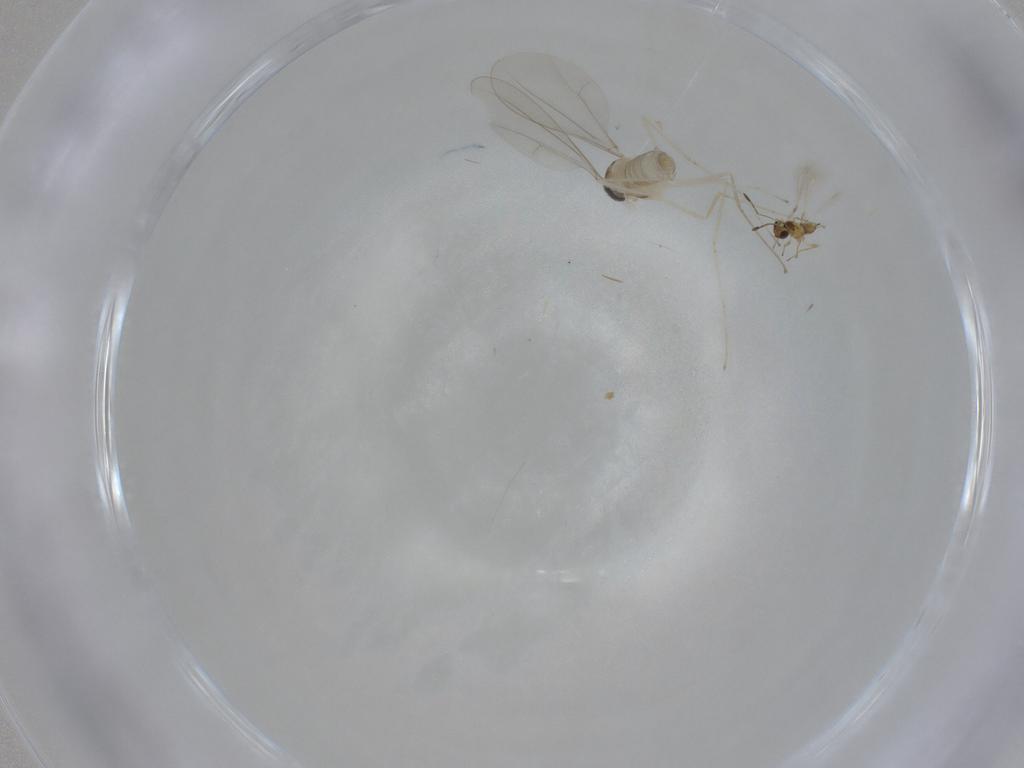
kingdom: Animalia
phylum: Arthropoda
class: Insecta
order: Diptera
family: Cecidomyiidae
